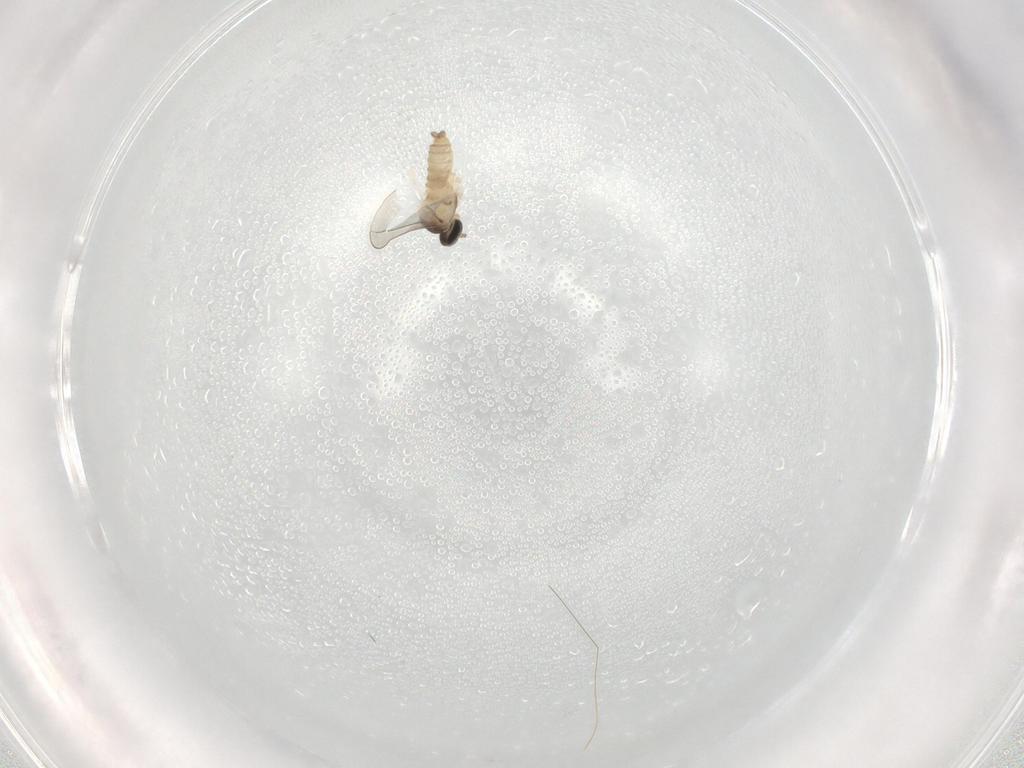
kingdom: Animalia
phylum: Arthropoda
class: Insecta
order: Diptera
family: Cecidomyiidae
